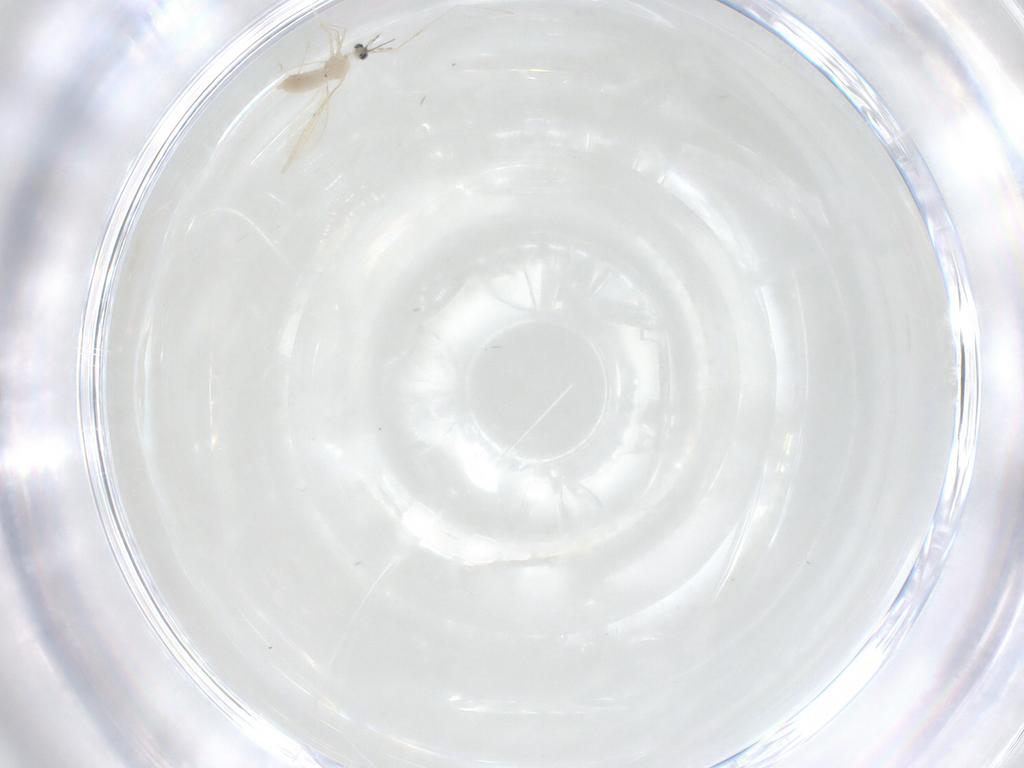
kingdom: Animalia
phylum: Arthropoda
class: Insecta
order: Diptera
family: Cecidomyiidae
